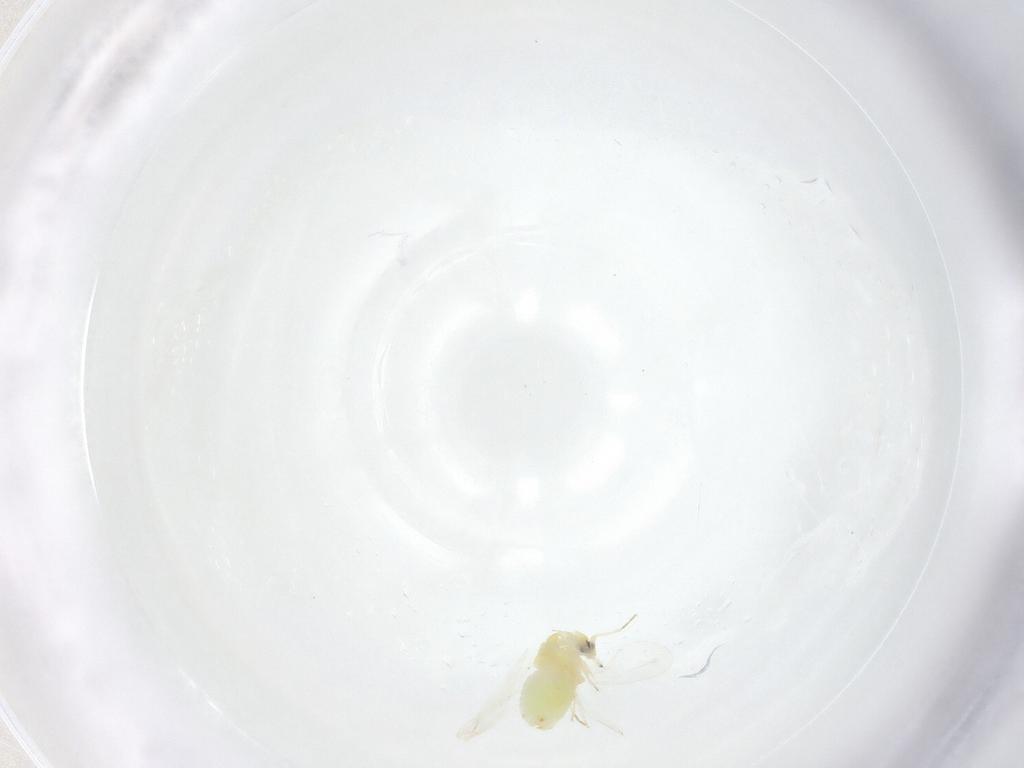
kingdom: Animalia
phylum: Arthropoda
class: Insecta
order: Hemiptera
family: Aleyrodidae
